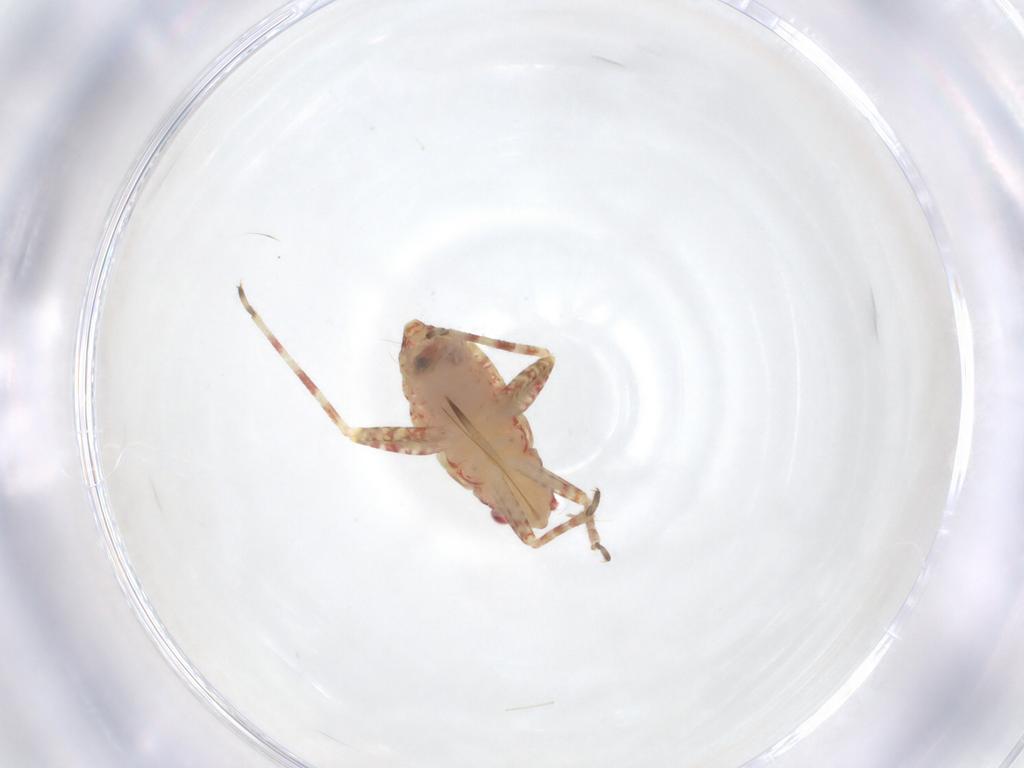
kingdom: Animalia
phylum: Arthropoda
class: Insecta
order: Hemiptera
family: Miridae
